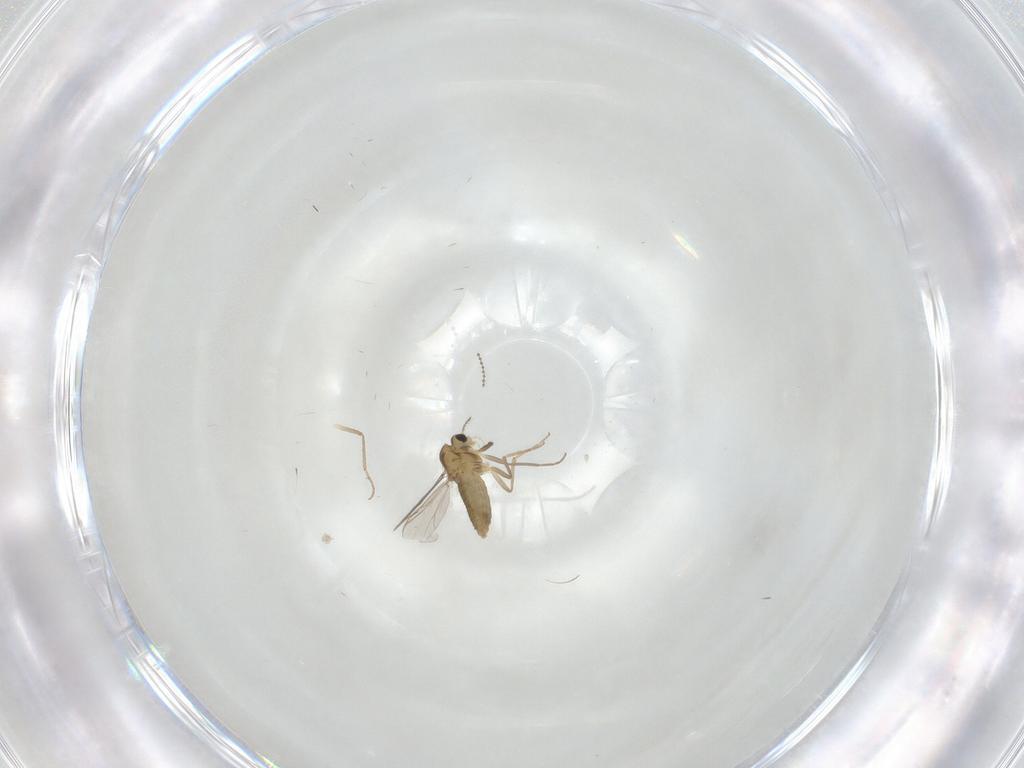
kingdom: Animalia
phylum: Arthropoda
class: Insecta
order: Diptera
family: Chironomidae
